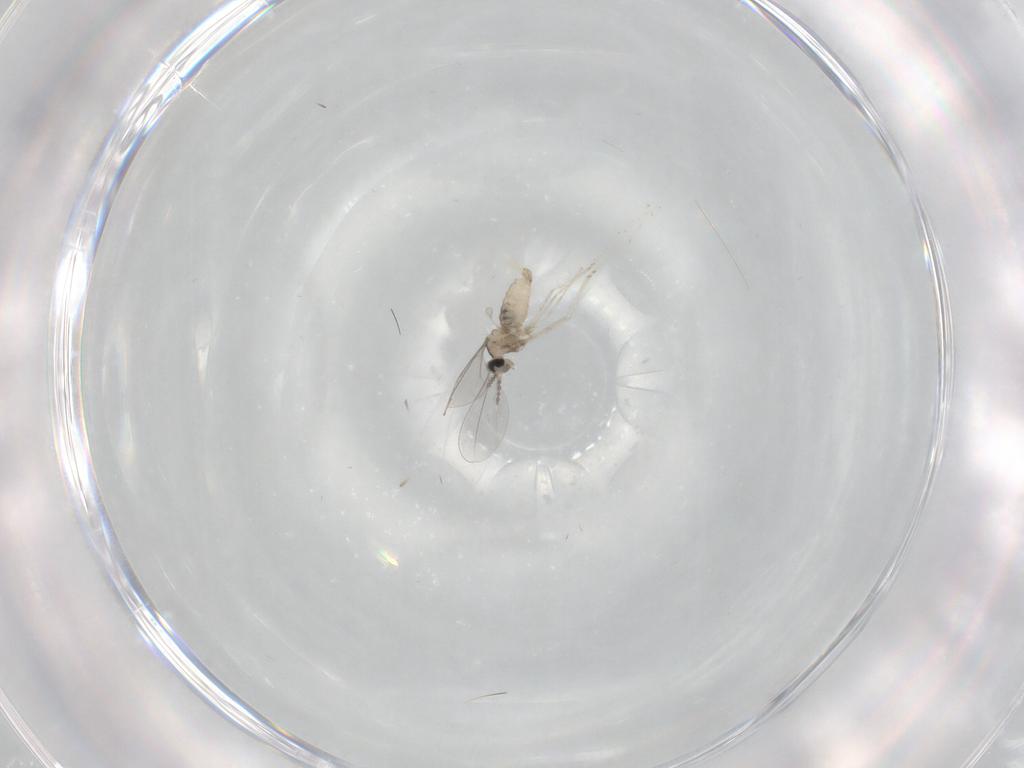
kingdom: Animalia
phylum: Arthropoda
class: Insecta
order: Diptera
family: Cecidomyiidae
